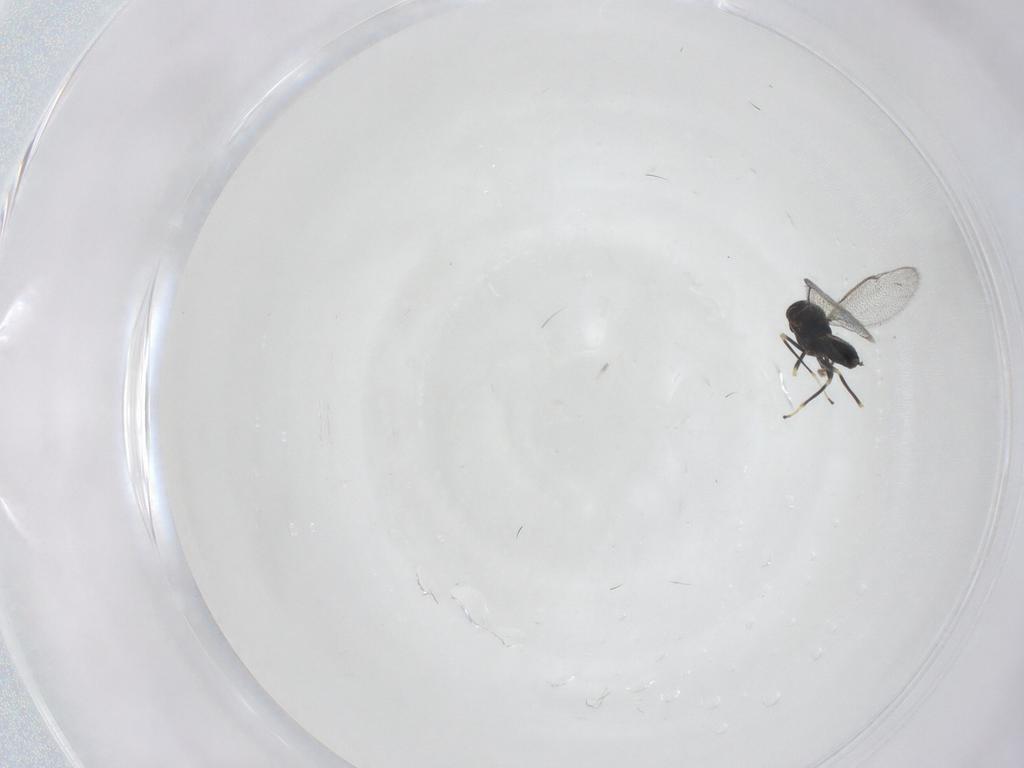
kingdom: Animalia
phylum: Arthropoda
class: Insecta
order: Hymenoptera
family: Eulophidae
